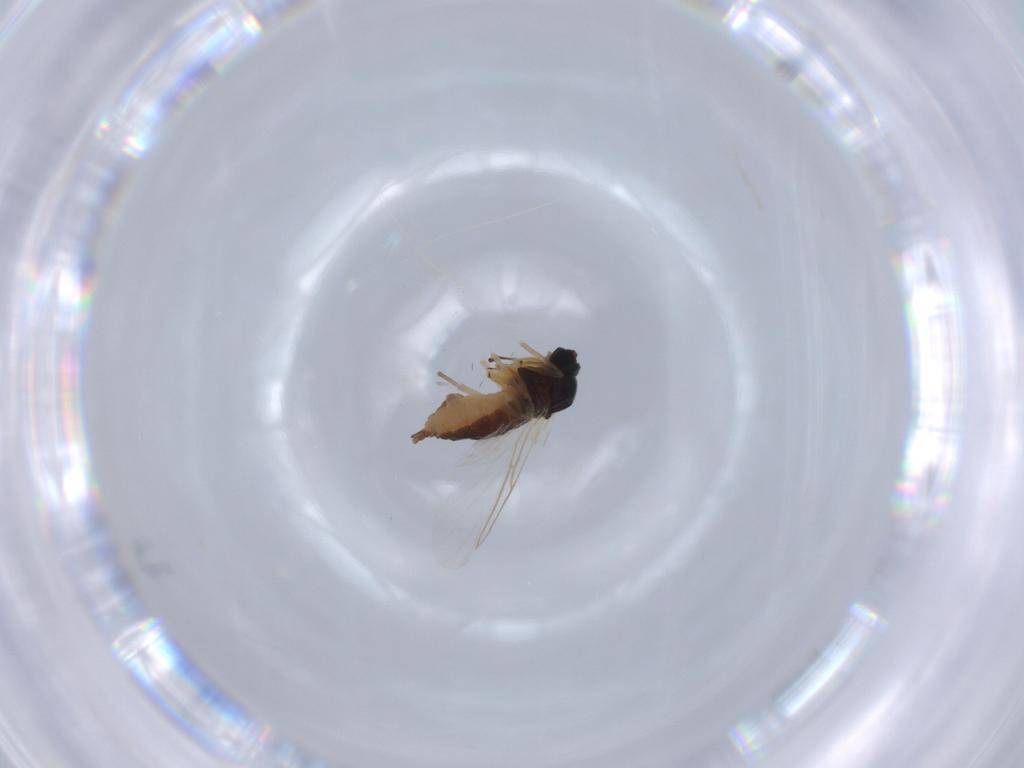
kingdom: Animalia
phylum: Arthropoda
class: Insecta
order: Diptera
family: Sciaridae
